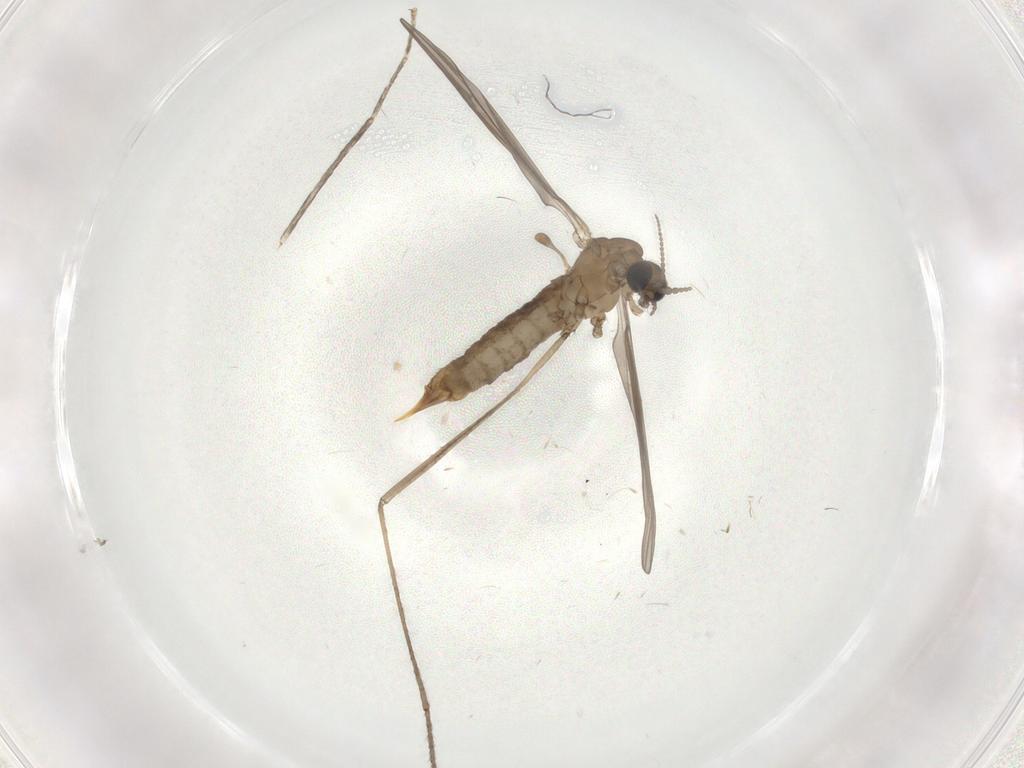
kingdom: Animalia
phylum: Arthropoda
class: Insecta
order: Diptera
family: Limoniidae
